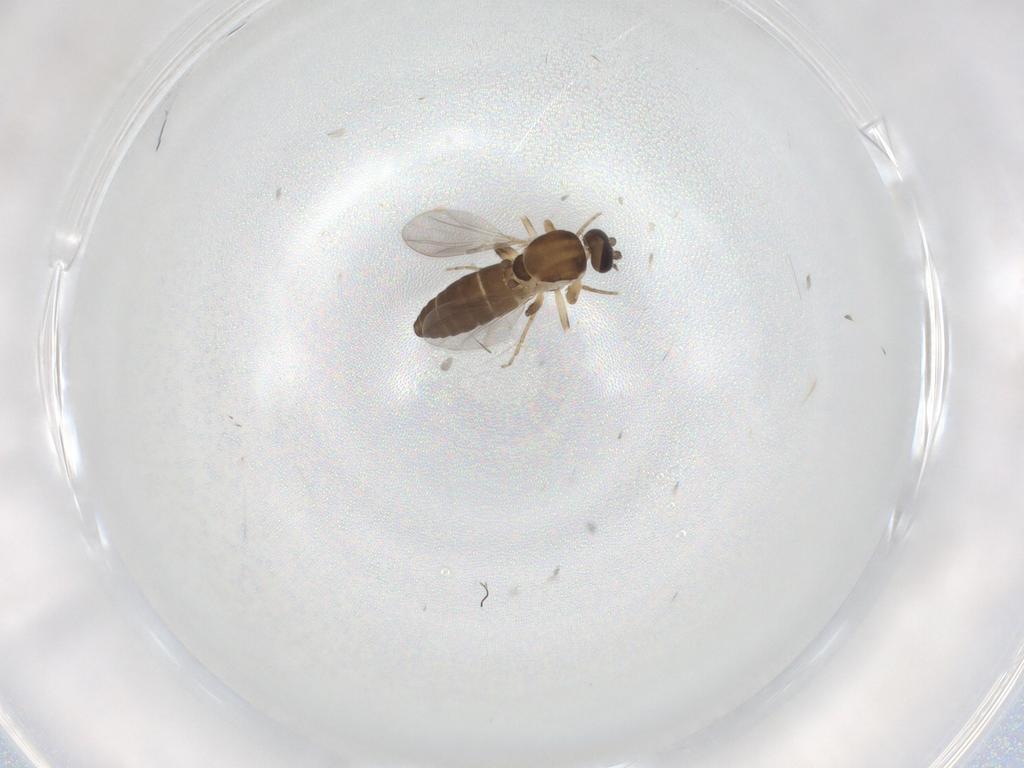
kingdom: Animalia
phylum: Arthropoda
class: Insecta
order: Diptera
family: Ceratopogonidae
